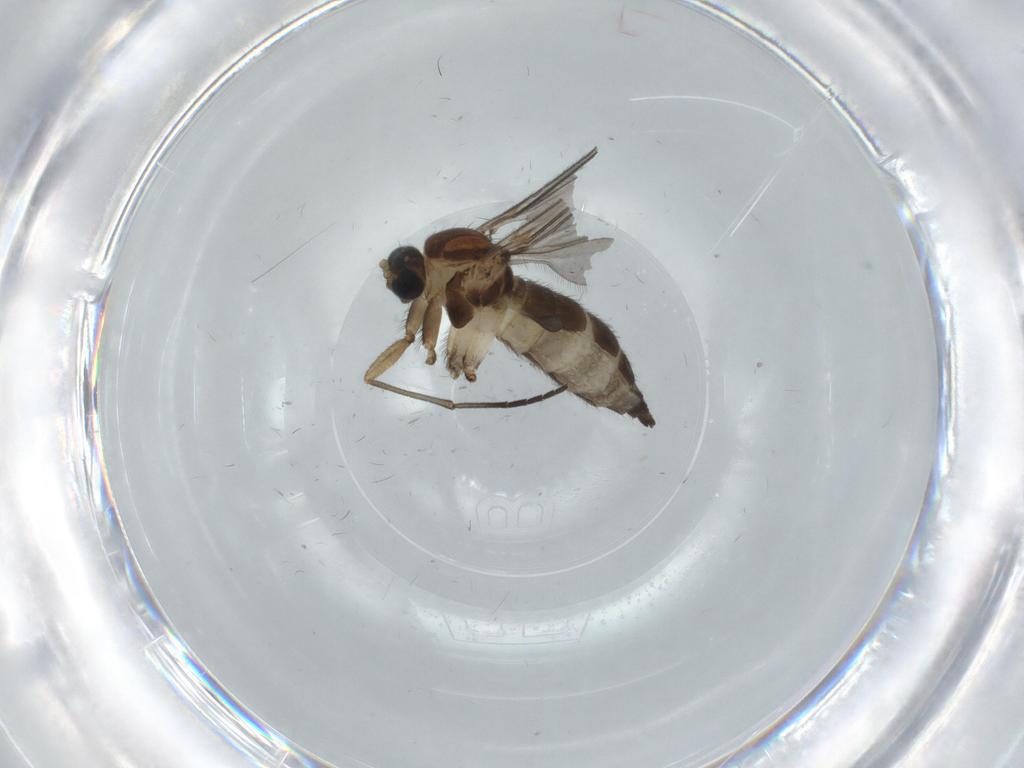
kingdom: Animalia
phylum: Arthropoda
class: Insecta
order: Diptera
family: Sciaridae
